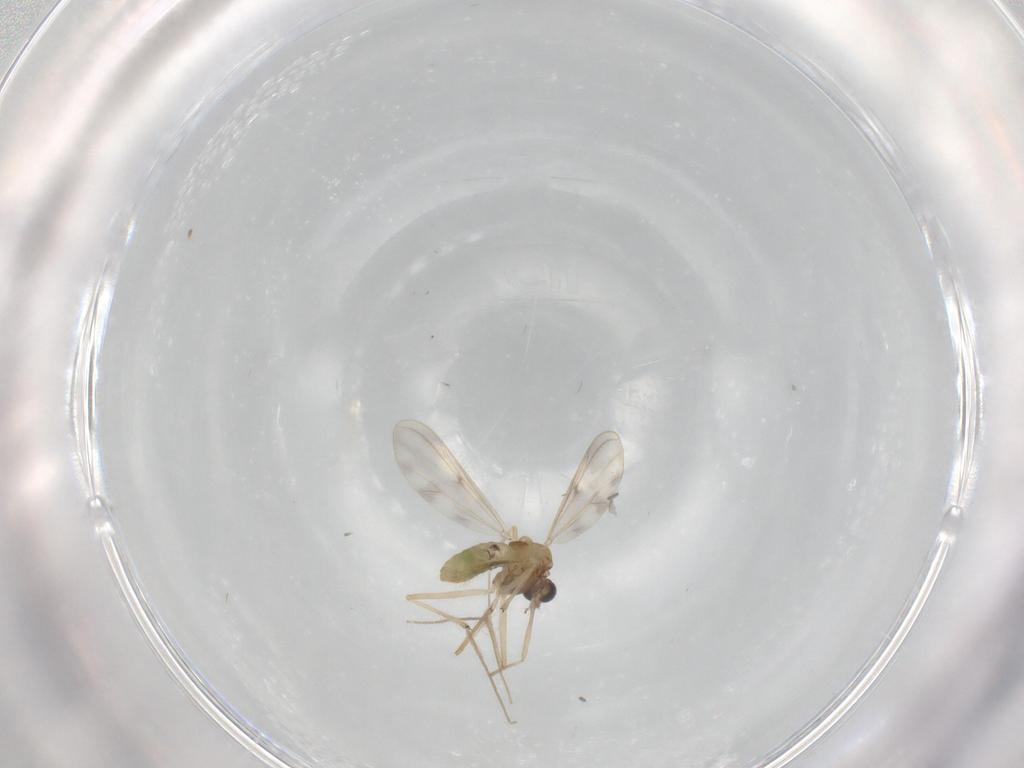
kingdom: Animalia
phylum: Arthropoda
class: Insecta
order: Diptera
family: Chironomidae
